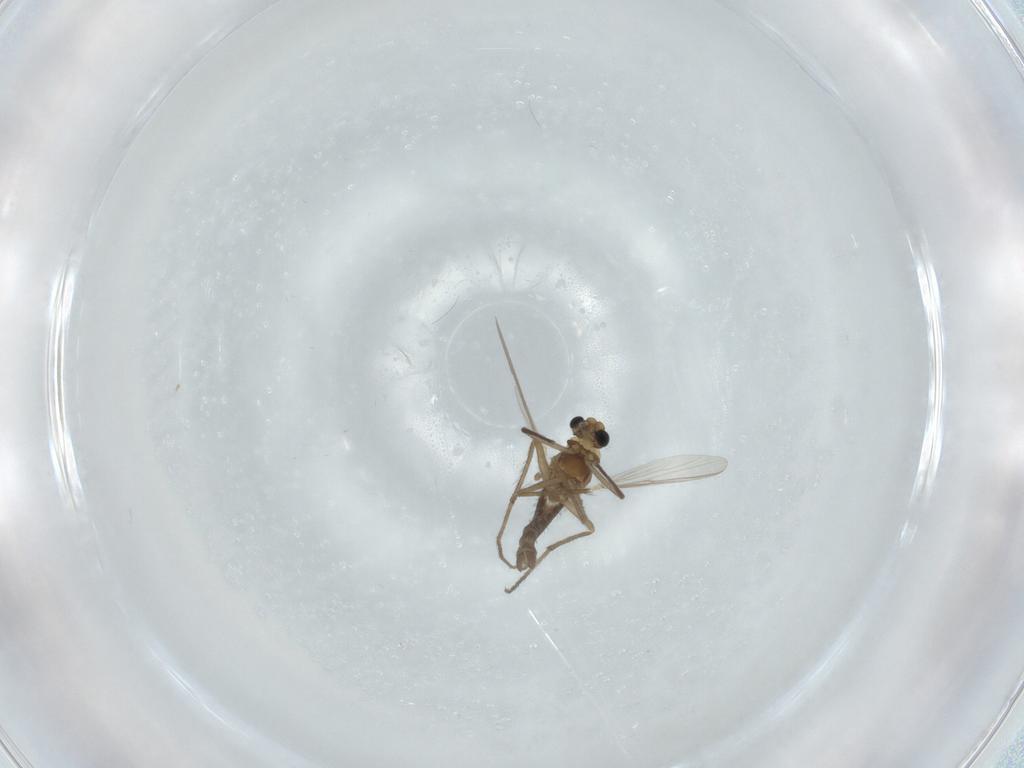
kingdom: Animalia
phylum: Arthropoda
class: Insecta
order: Diptera
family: Chironomidae
